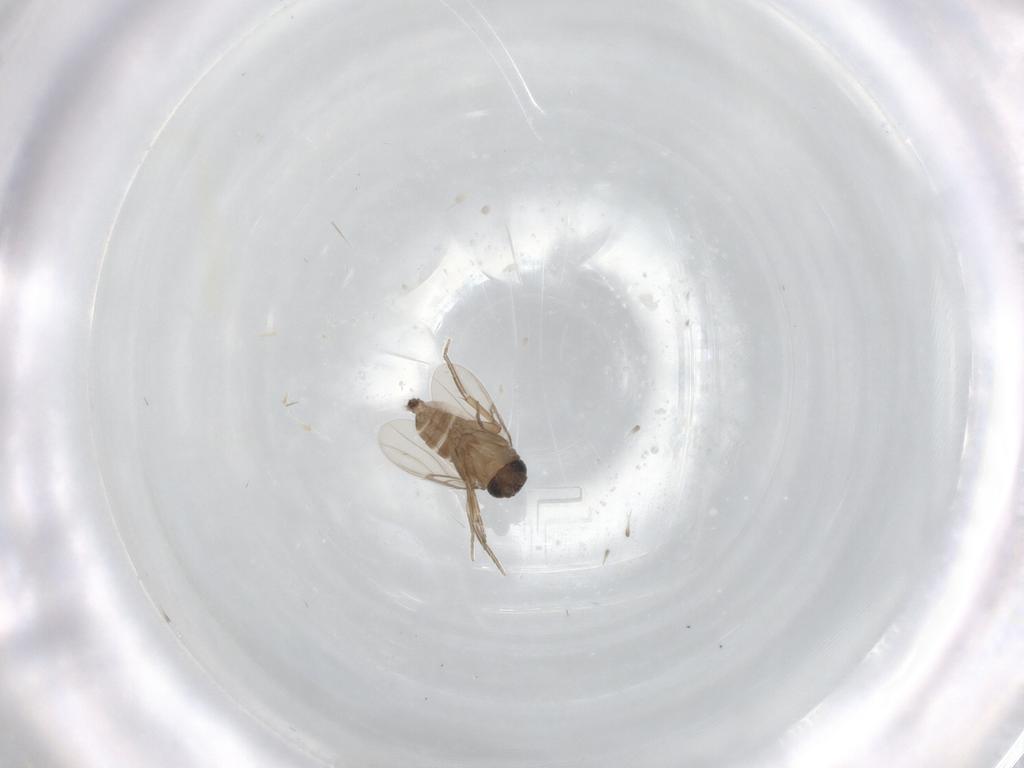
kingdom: Animalia
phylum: Arthropoda
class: Insecta
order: Diptera
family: Phoridae
